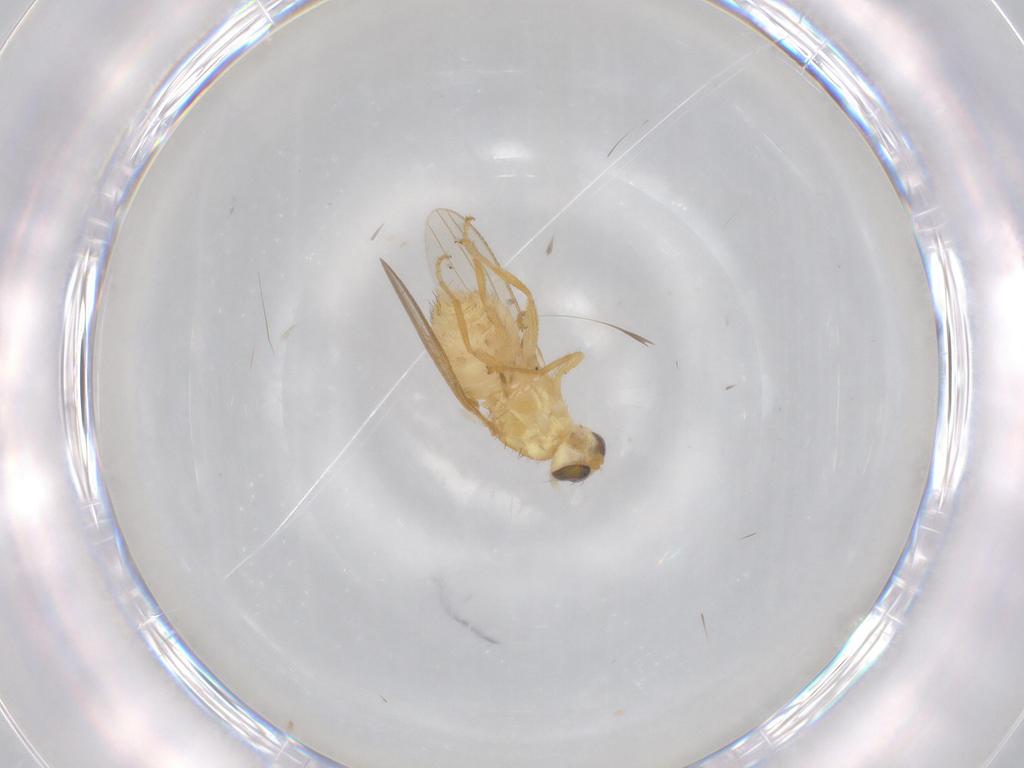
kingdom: Animalia
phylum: Arthropoda
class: Insecta
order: Diptera
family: Chyromyidae
